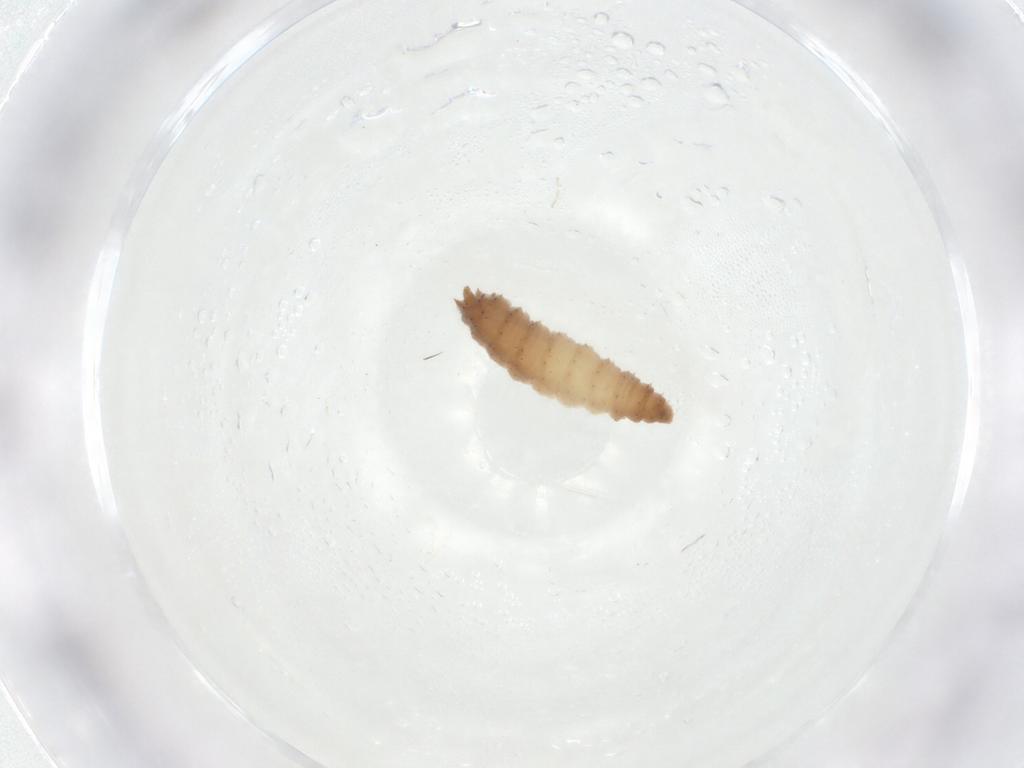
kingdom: Animalia
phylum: Arthropoda
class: Insecta
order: Diptera
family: Phoridae
